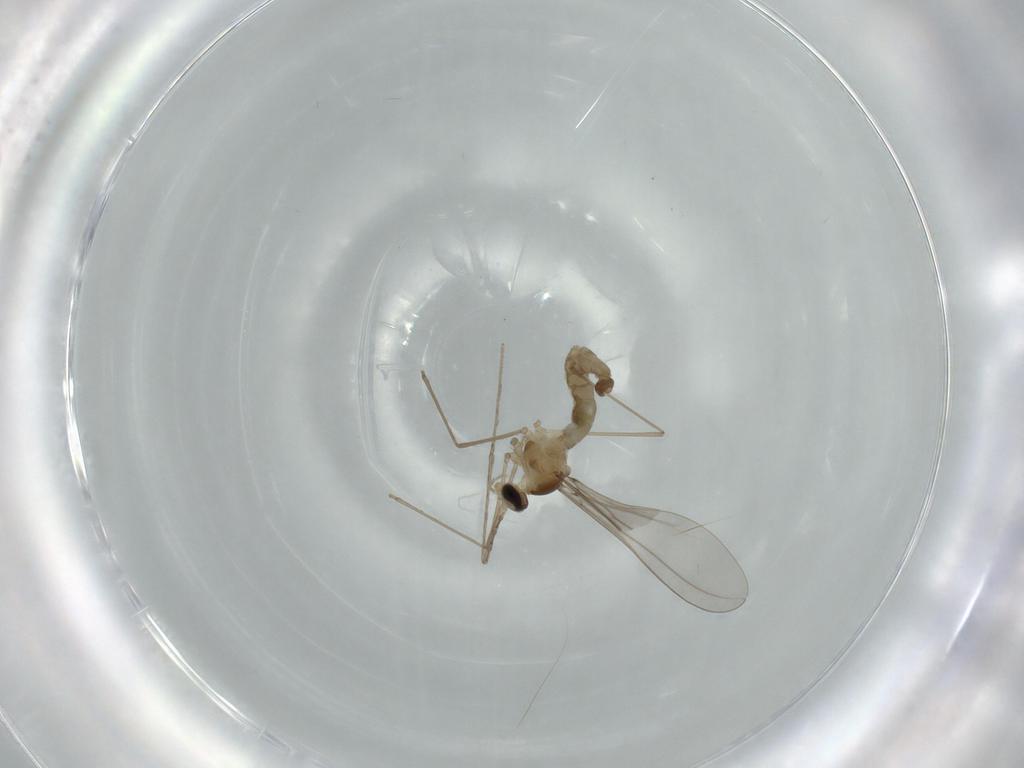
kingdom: Animalia
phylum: Arthropoda
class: Insecta
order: Diptera
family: Cecidomyiidae
